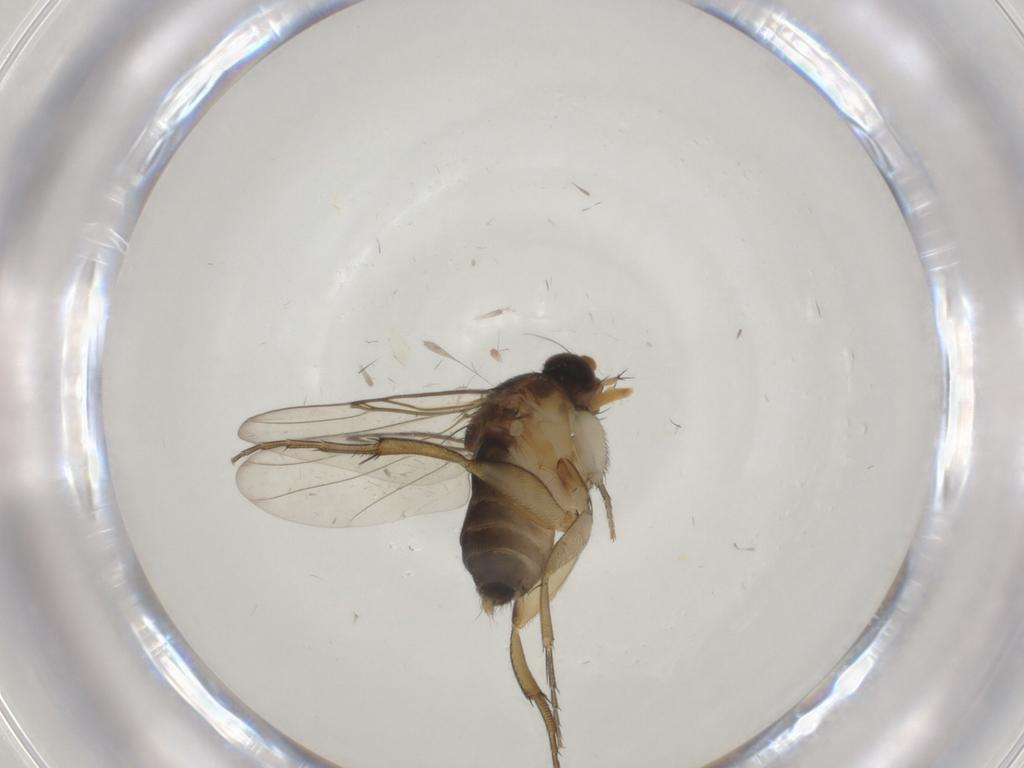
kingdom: Animalia
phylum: Arthropoda
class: Insecta
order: Diptera
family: Phoridae
